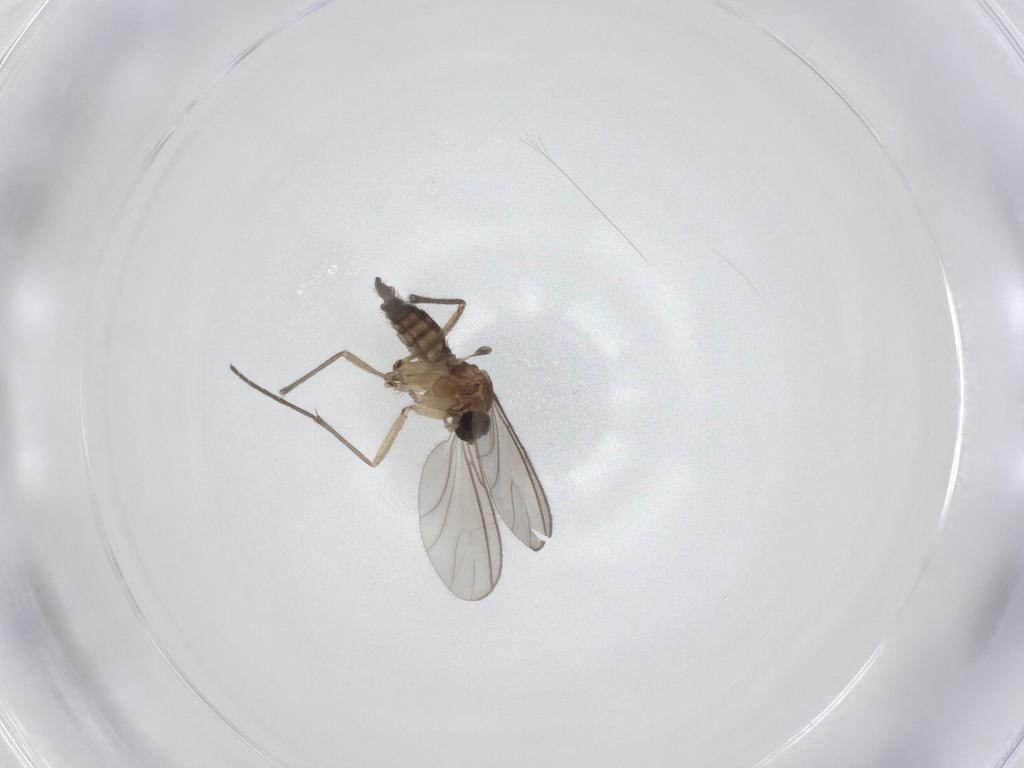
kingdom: Animalia
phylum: Arthropoda
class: Insecta
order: Diptera
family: Sciaridae
